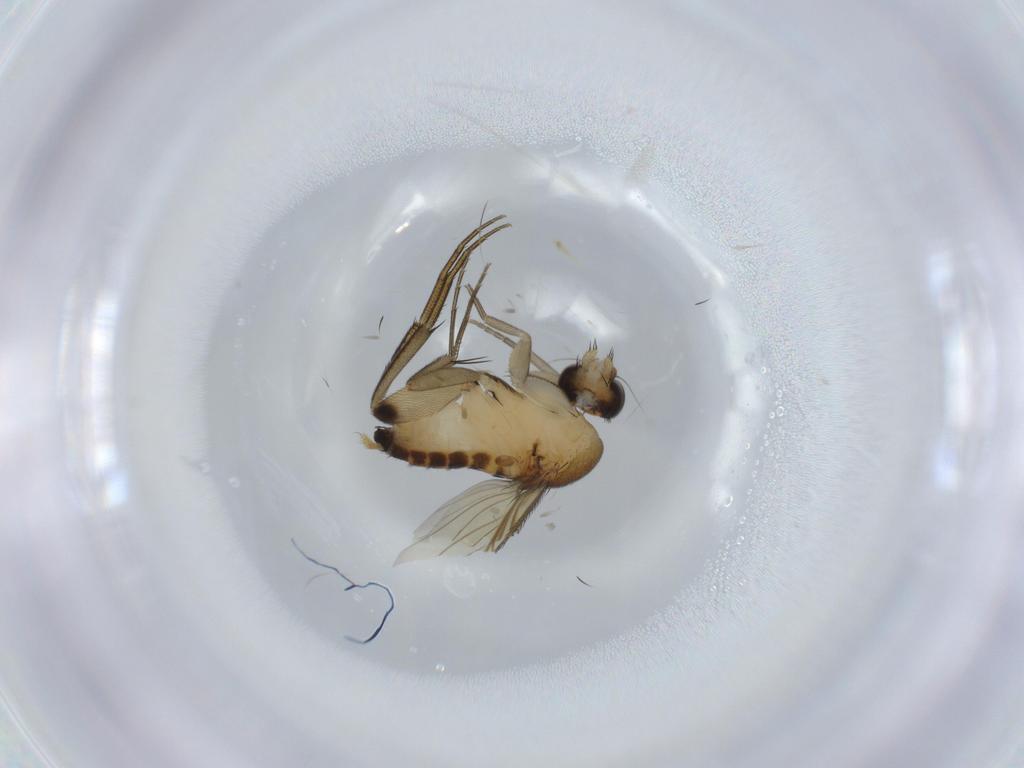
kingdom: Animalia
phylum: Arthropoda
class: Insecta
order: Diptera
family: Phoridae
